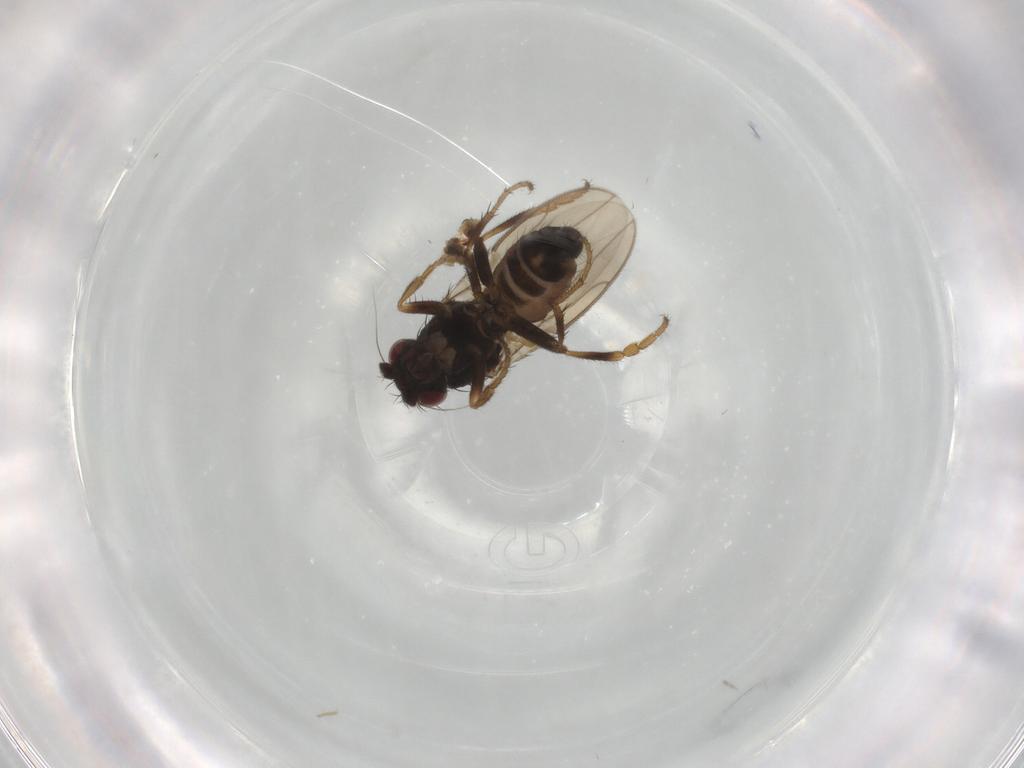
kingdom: Animalia
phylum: Arthropoda
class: Insecta
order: Diptera
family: Sphaeroceridae
